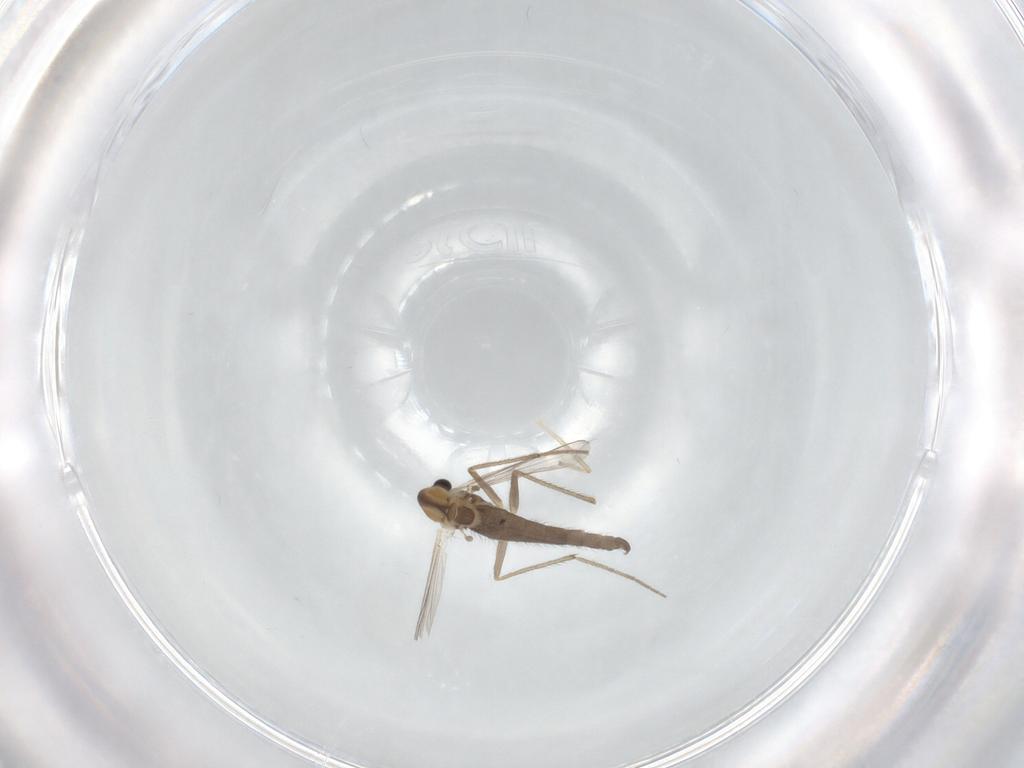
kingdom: Animalia
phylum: Arthropoda
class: Insecta
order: Diptera
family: Chironomidae
